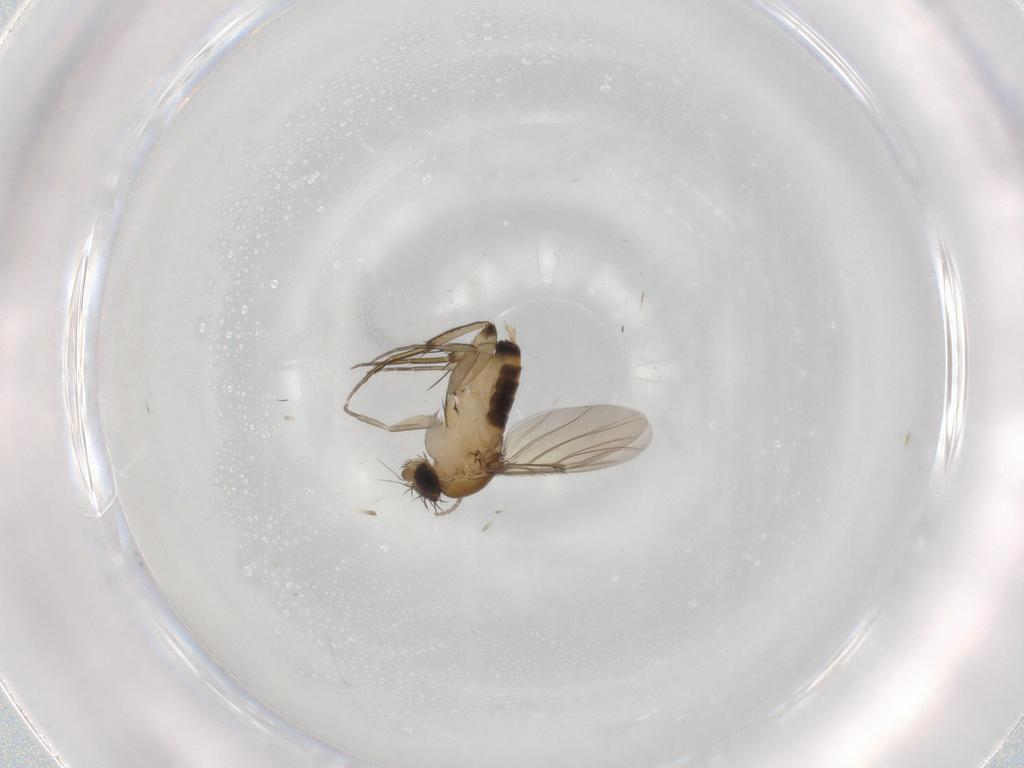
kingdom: Animalia
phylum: Arthropoda
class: Insecta
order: Diptera
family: Phoridae
